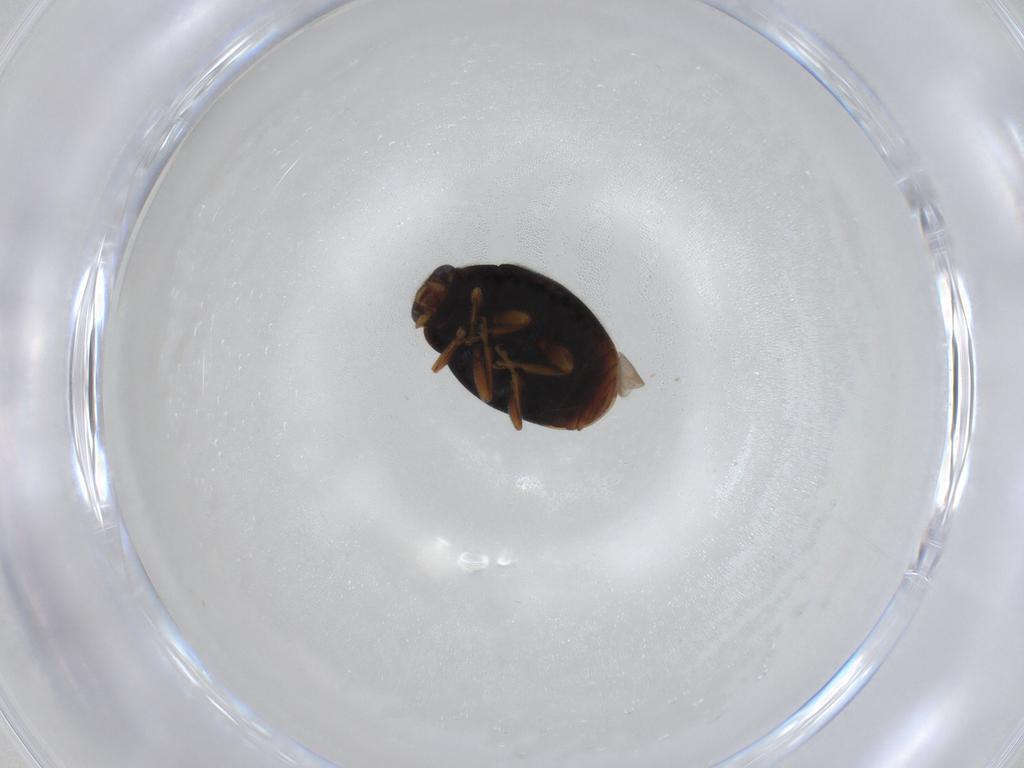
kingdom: Animalia
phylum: Arthropoda
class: Insecta
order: Coleoptera
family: Coccinellidae
